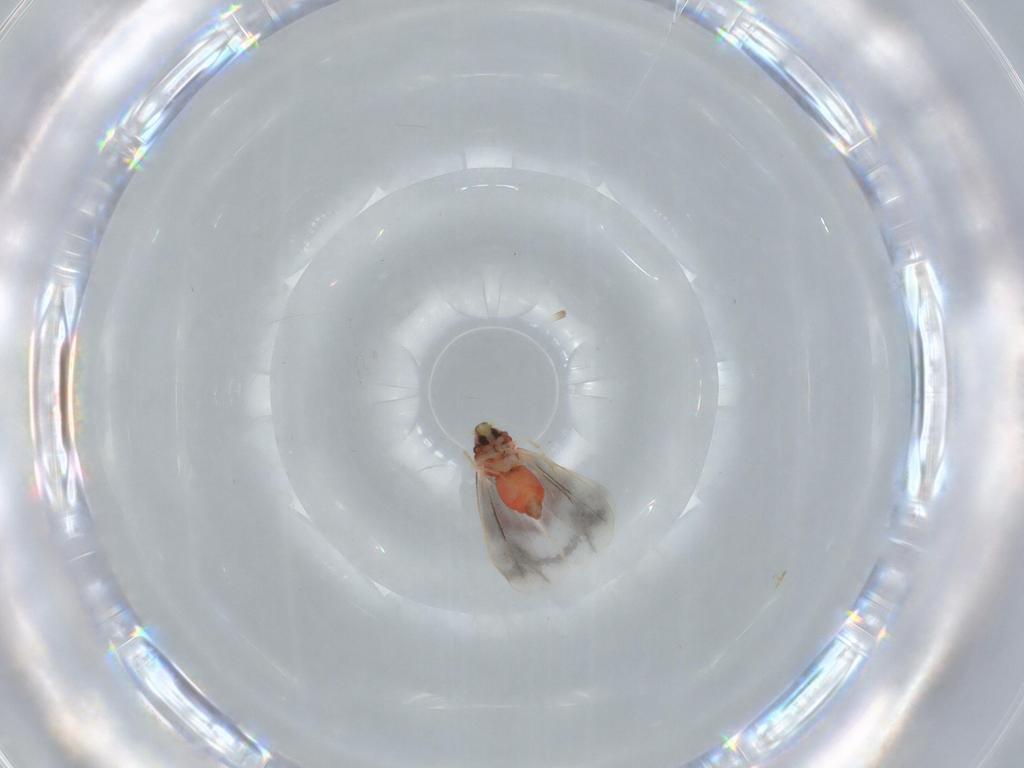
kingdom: Animalia
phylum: Arthropoda
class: Insecta
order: Hemiptera
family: Aleyrodidae
